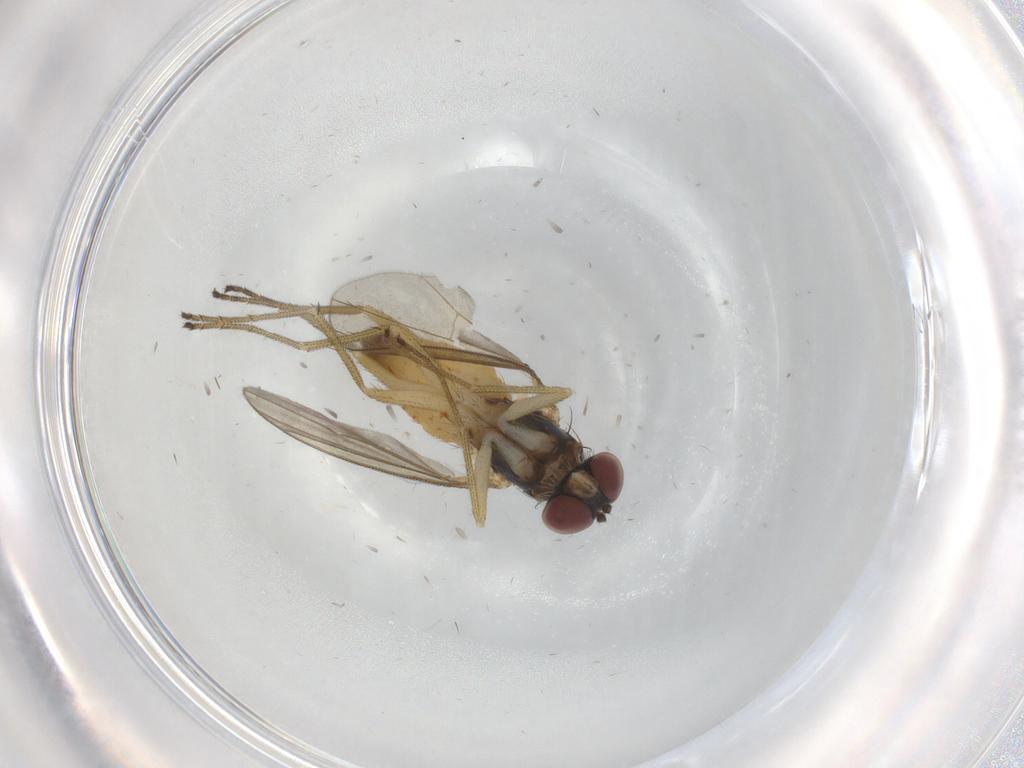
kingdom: Animalia
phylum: Arthropoda
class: Insecta
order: Diptera
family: Dolichopodidae
